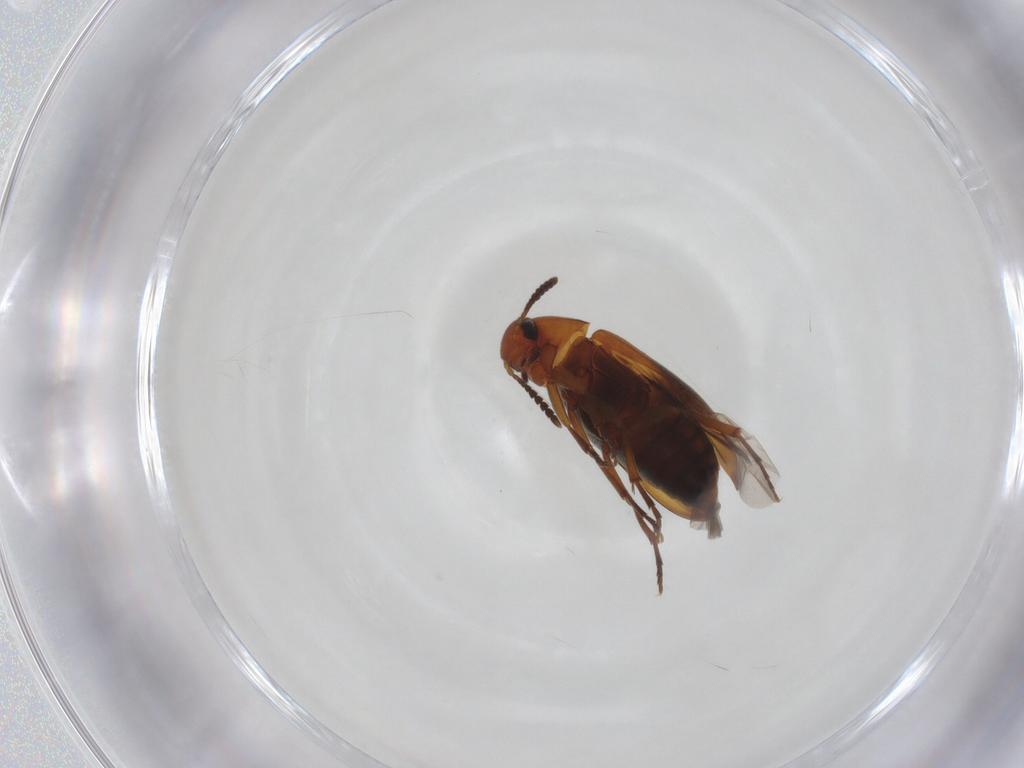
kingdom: Animalia
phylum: Arthropoda
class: Insecta
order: Coleoptera
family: Scraptiidae
